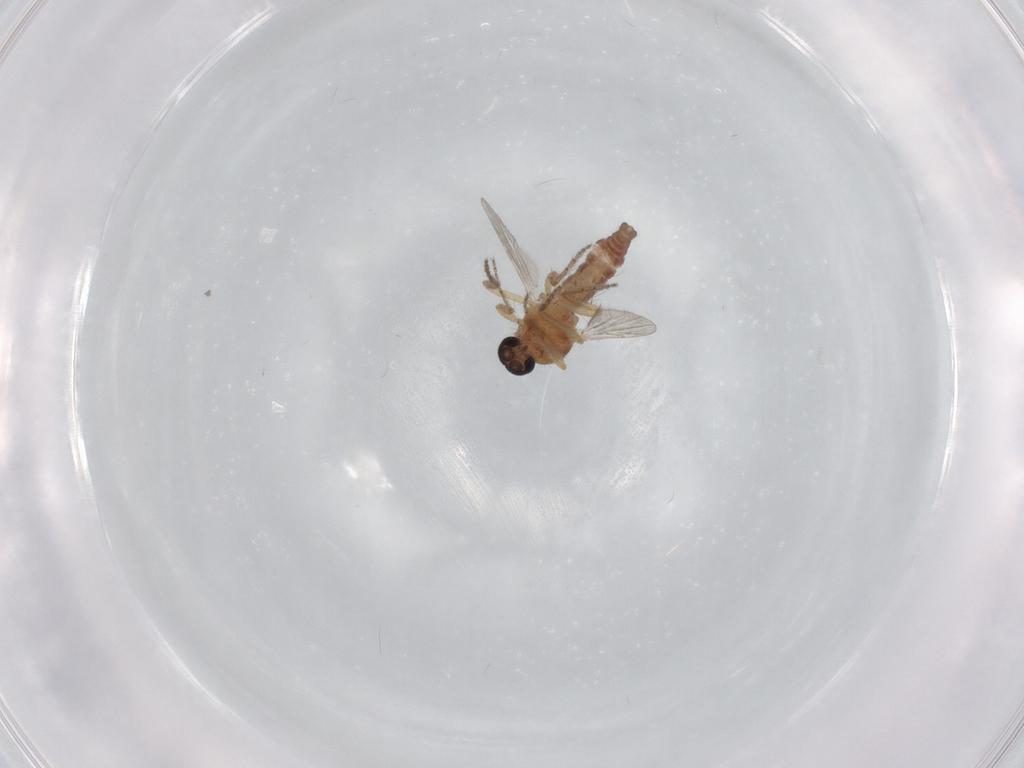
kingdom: Animalia
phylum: Arthropoda
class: Insecta
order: Diptera
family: Ceratopogonidae
